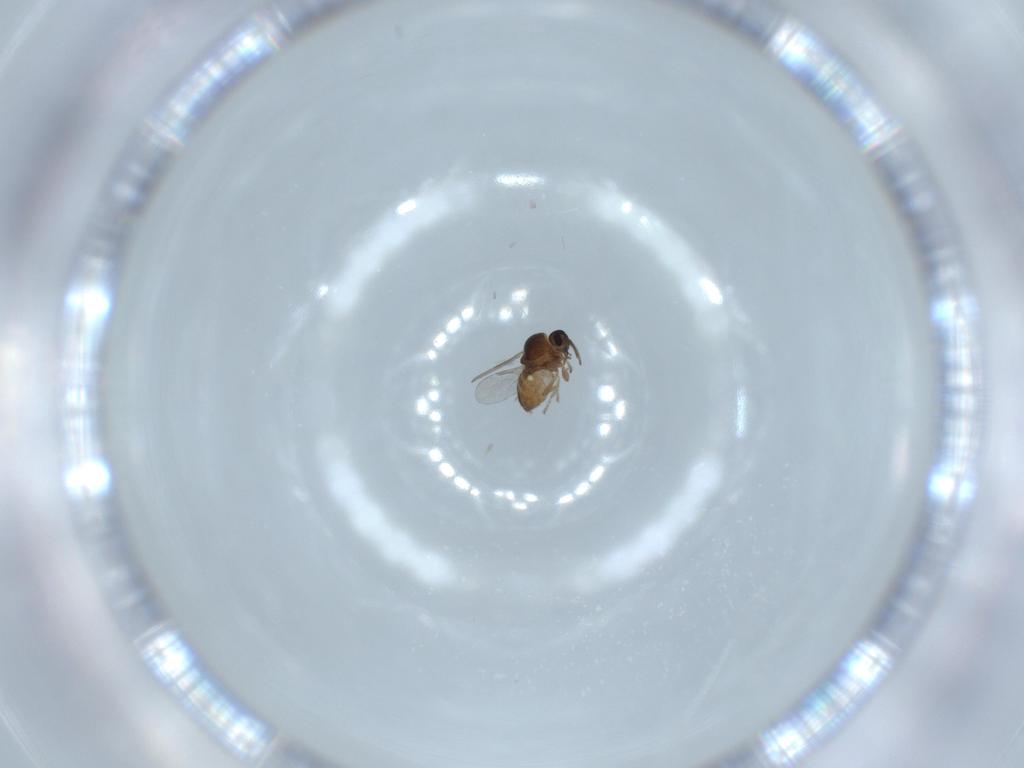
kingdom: Animalia
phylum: Arthropoda
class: Insecta
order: Diptera
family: Ceratopogonidae
